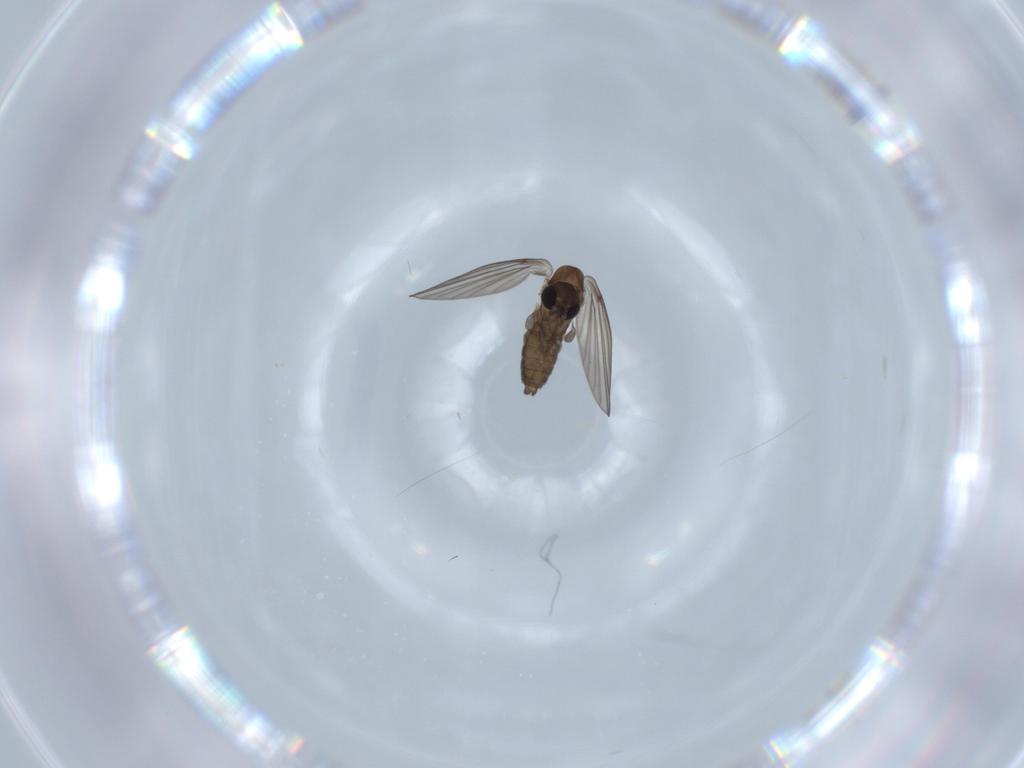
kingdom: Animalia
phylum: Arthropoda
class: Insecta
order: Diptera
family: Psychodidae
